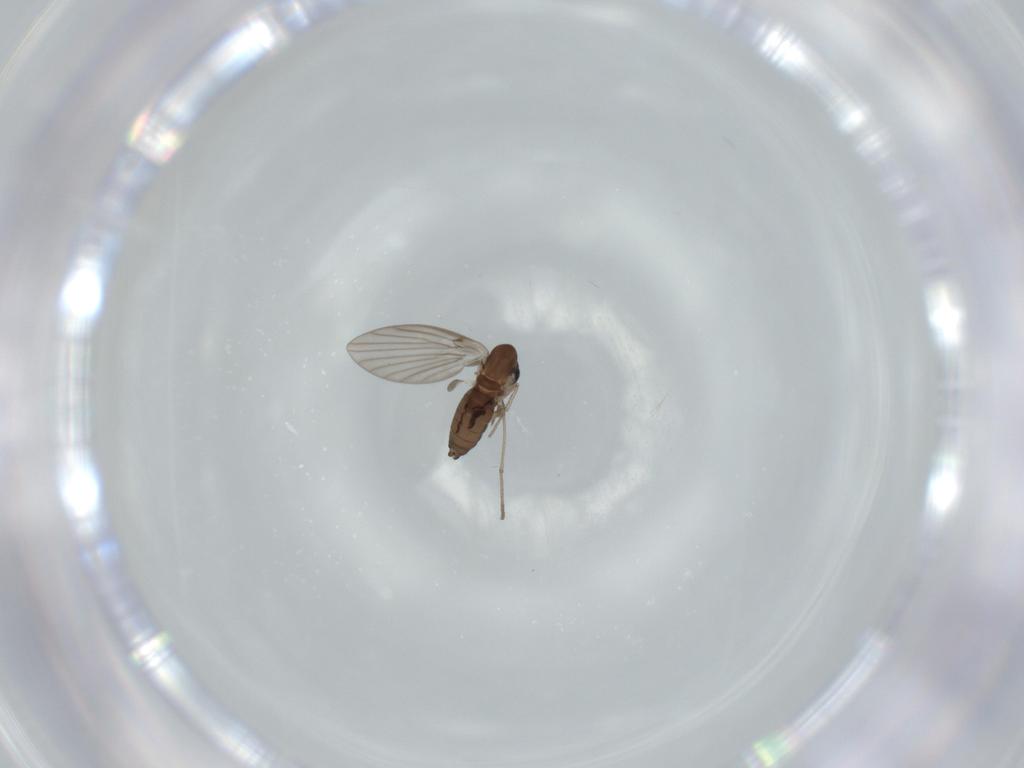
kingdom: Animalia
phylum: Arthropoda
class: Insecta
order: Diptera
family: Psychodidae
